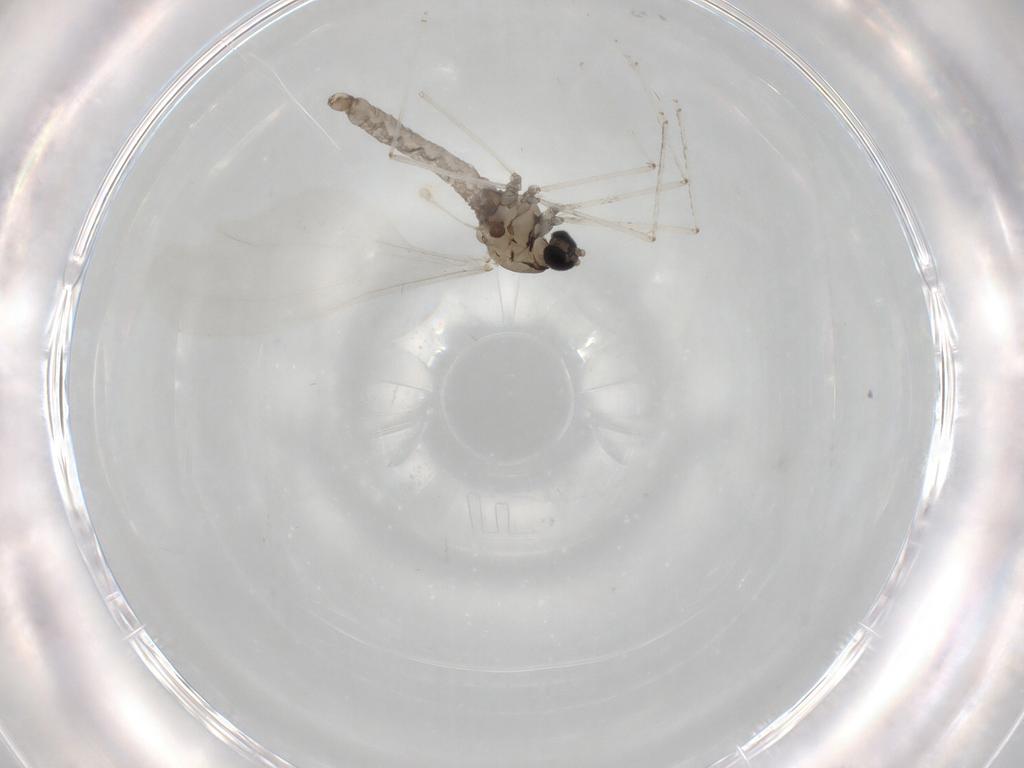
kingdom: Animalia
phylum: Arthropoda
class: Insecta
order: Diptera
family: Cecidomyiidae
